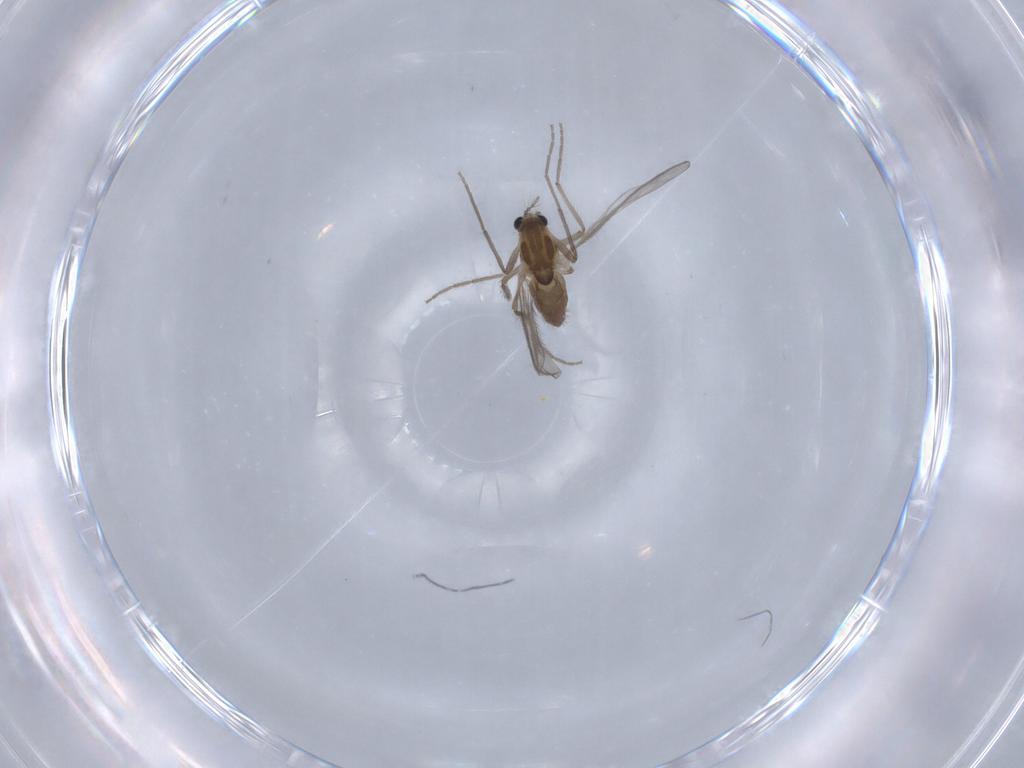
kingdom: Animalia
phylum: Arthropoda
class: Insecta
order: Diptera
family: Chironomidae
